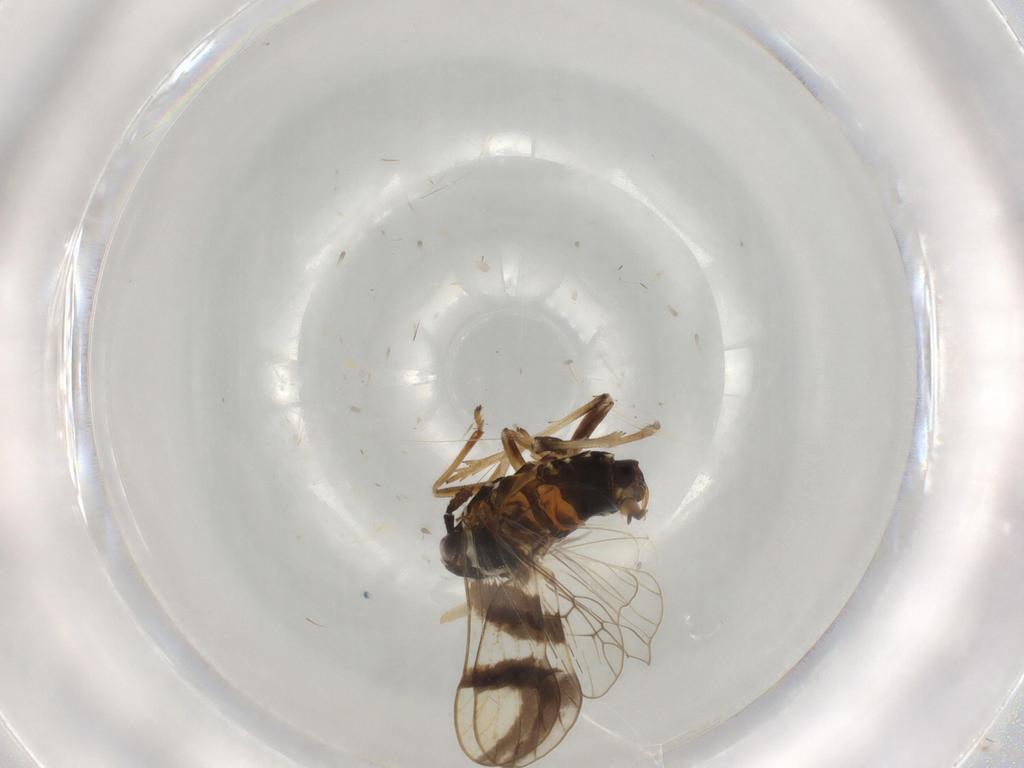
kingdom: Animalia
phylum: Arthropoda
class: Insecta
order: Hemiptera
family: Delphacidae
